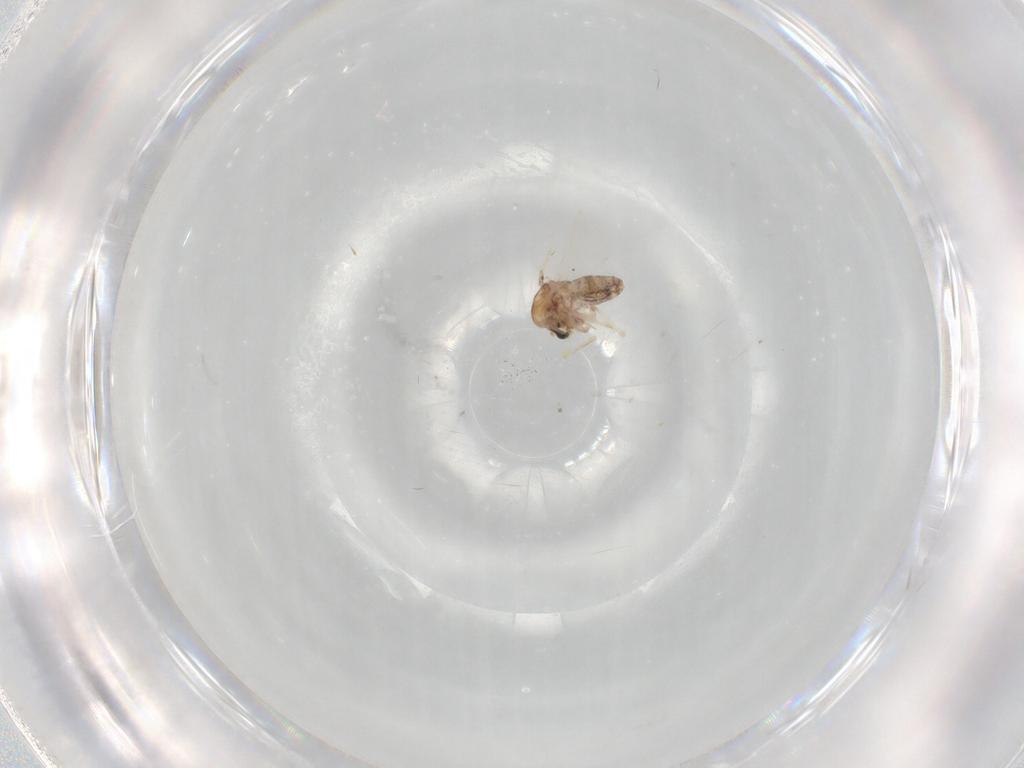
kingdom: Animalia
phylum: Arthropoda
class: Insecta
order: Diptera
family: Chironomidae
